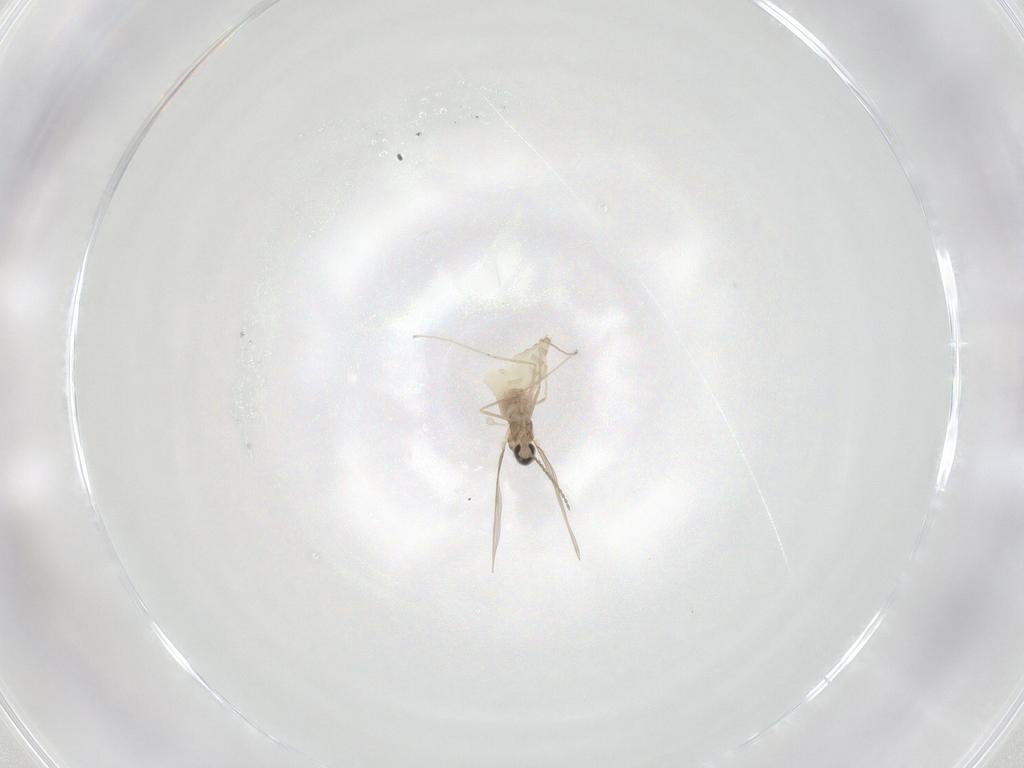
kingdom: Animalia
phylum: Arthropoda
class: Insecta
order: Diptera
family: Cecidomyiidae
